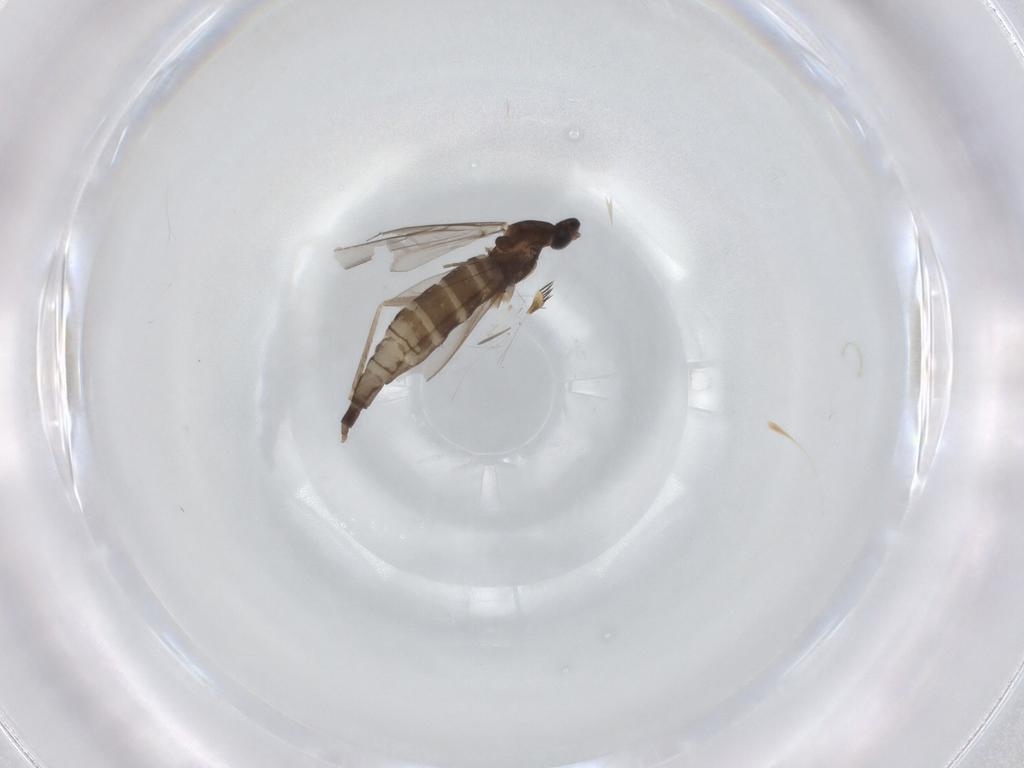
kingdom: Animalia
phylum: Arthropoda
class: Insecta
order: Diptera
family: Cecidomyiidae
